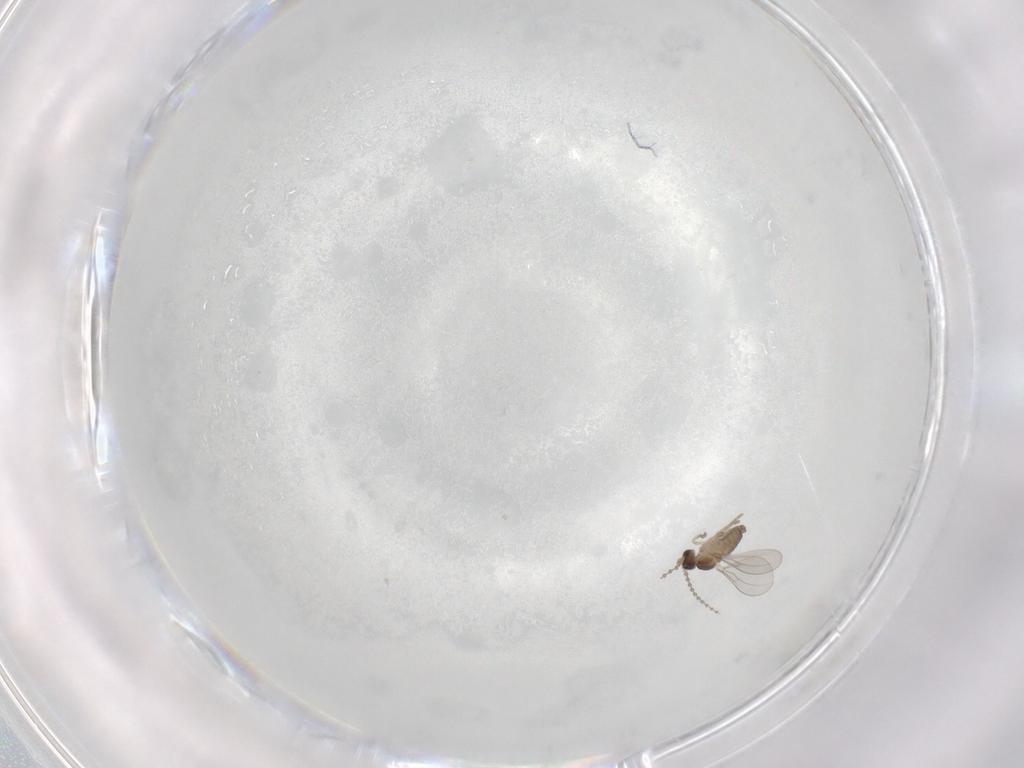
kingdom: Animalia
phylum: Arthropoda
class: Insecta
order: Diptera
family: Cecidomyiidae
